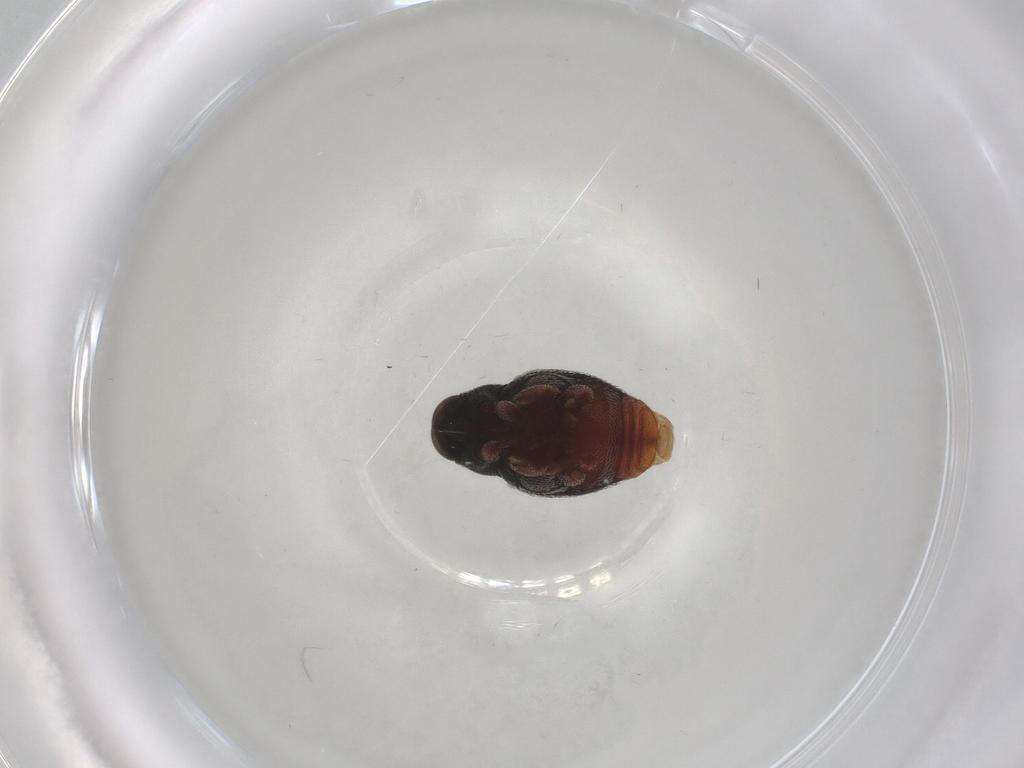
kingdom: Animalia
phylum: Arthropoda
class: Insecta
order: Coleoptera
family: Curculionidae
